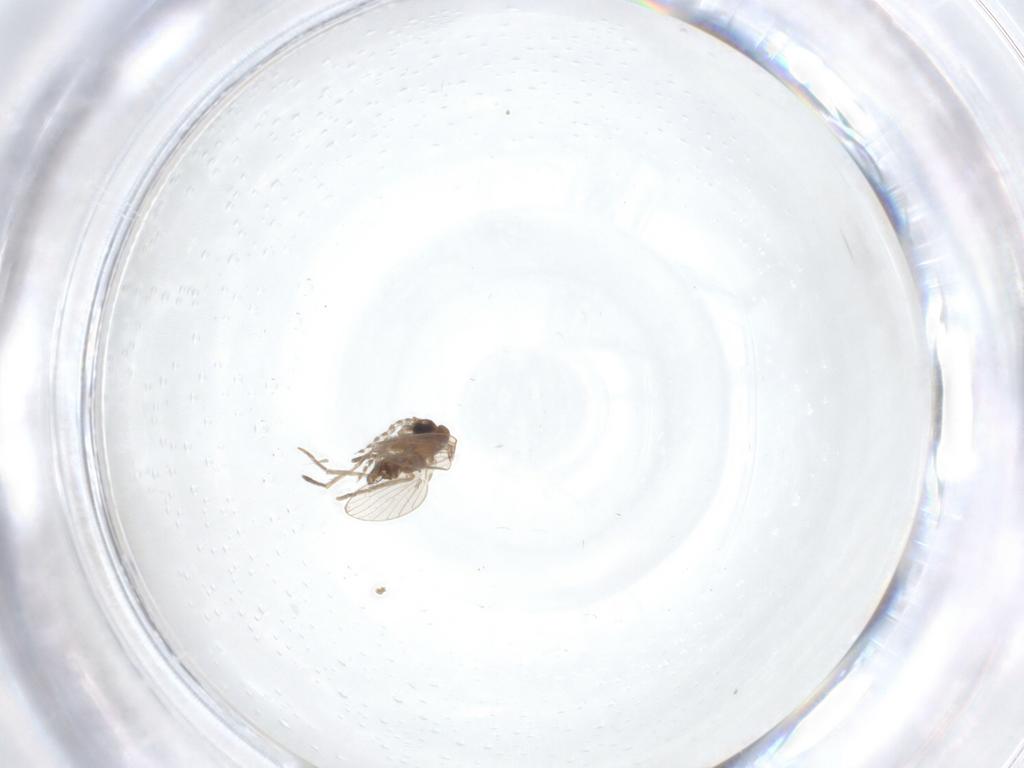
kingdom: Animalia
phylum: Arthropoda
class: Insecta
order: Diptera
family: Psychodidae
